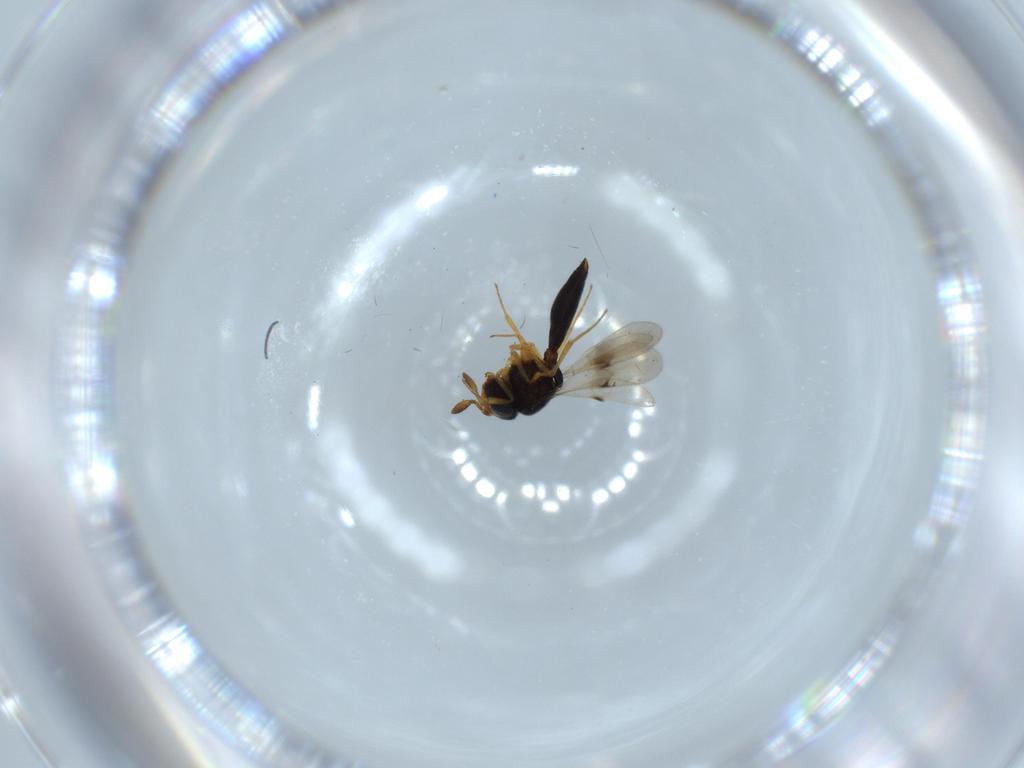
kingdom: Animalia
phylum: Arthropoda
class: Insecta
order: Hymenoptera
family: Scelionidae
